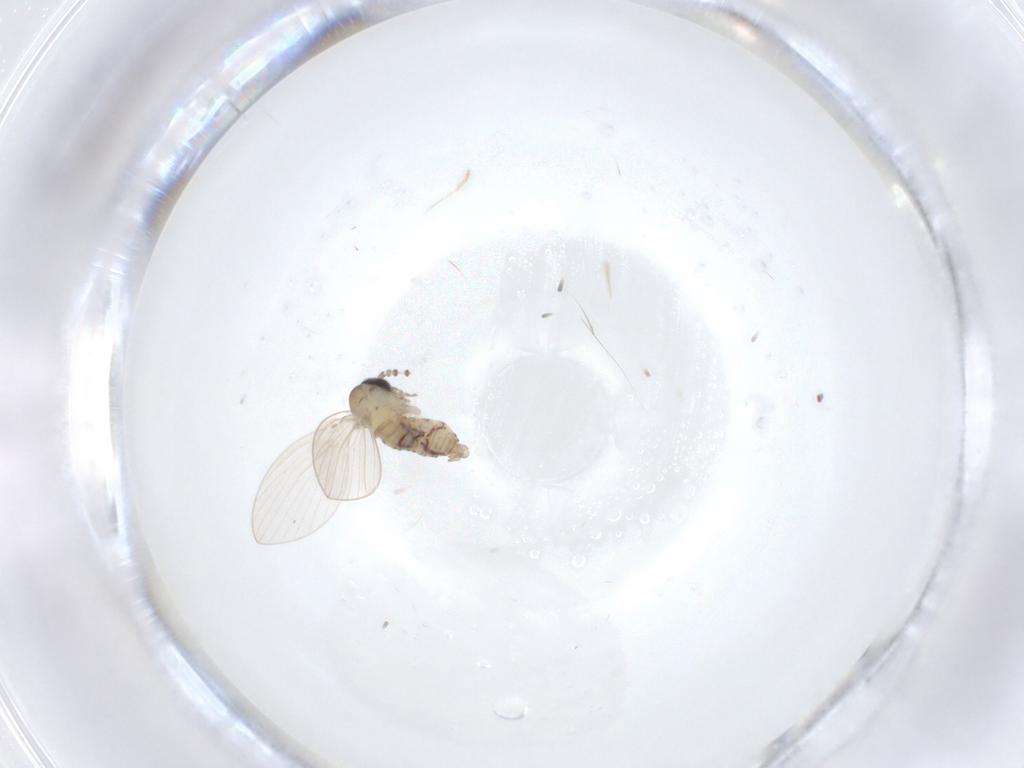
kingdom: Animalia
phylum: Arthropoda
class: Insecta
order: Diptera
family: Psychodidae
